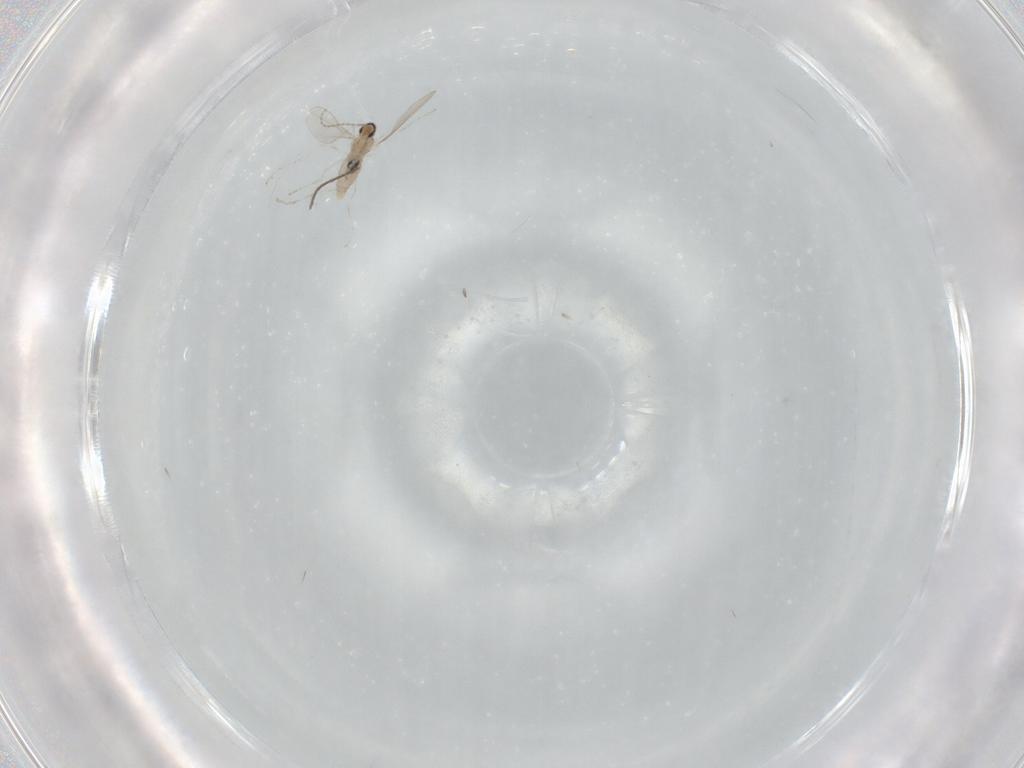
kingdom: Animalia
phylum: Arthropoda
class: Insecta
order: Diptera
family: Cecidomyiidae
